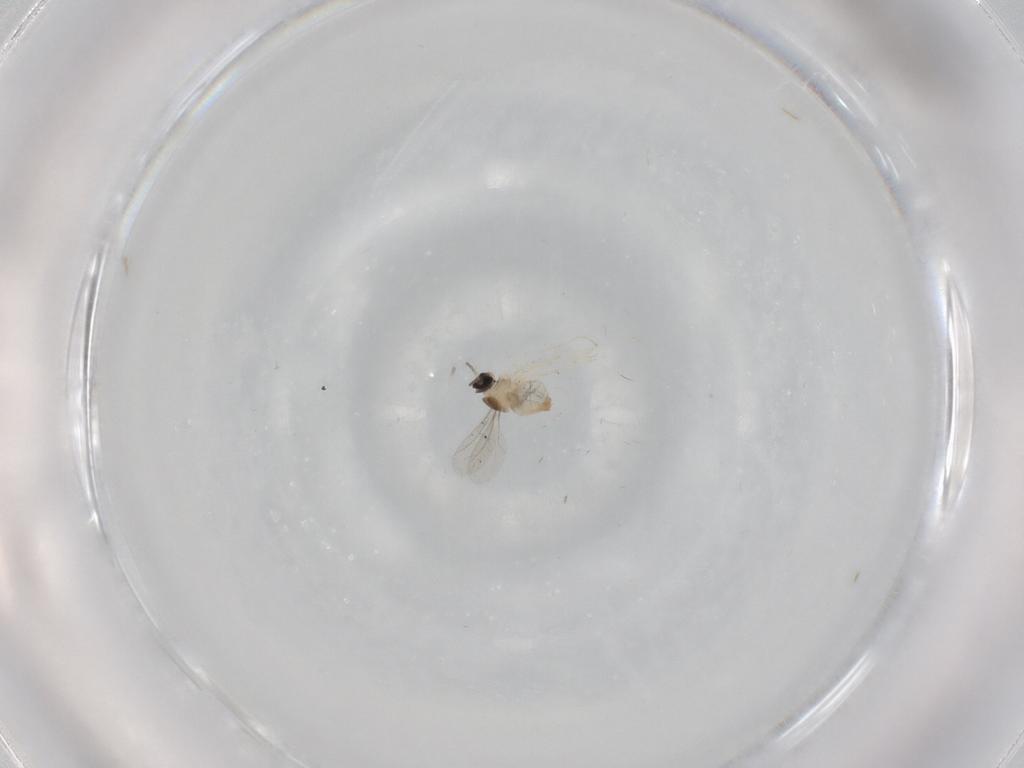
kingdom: Animalia
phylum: Arthropoda
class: Insecta
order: Diptera
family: Cecidomyiidae
